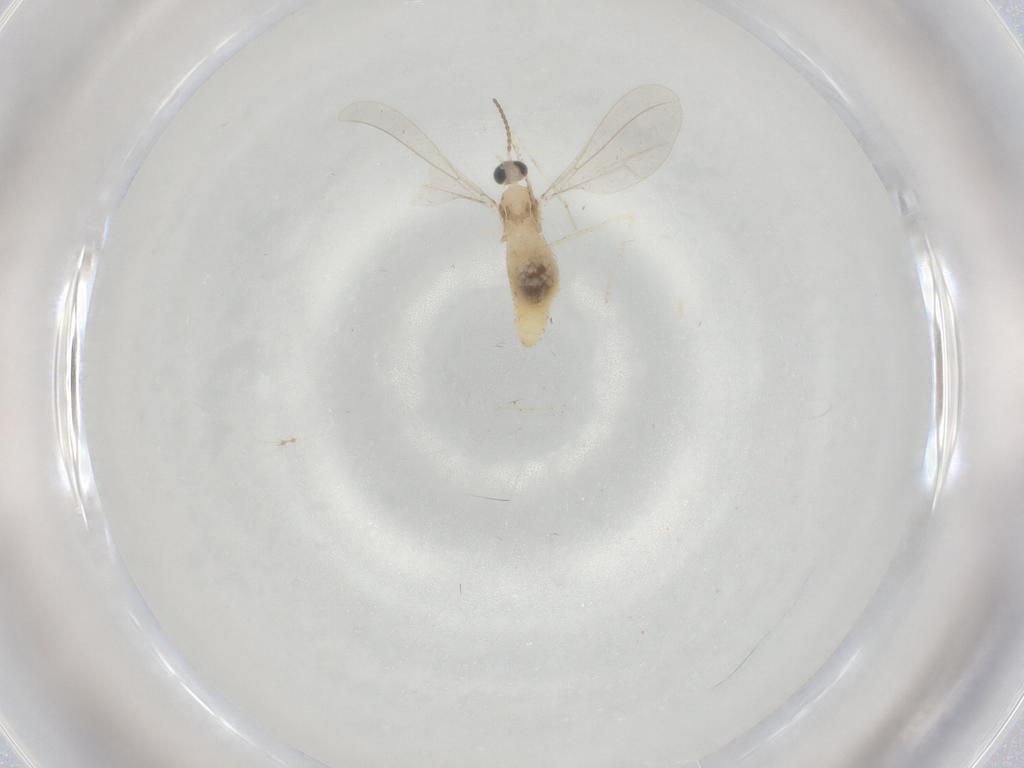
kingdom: Animalia
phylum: Arthropoda
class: Insecta
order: Diptera
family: Cecidomyiidae
